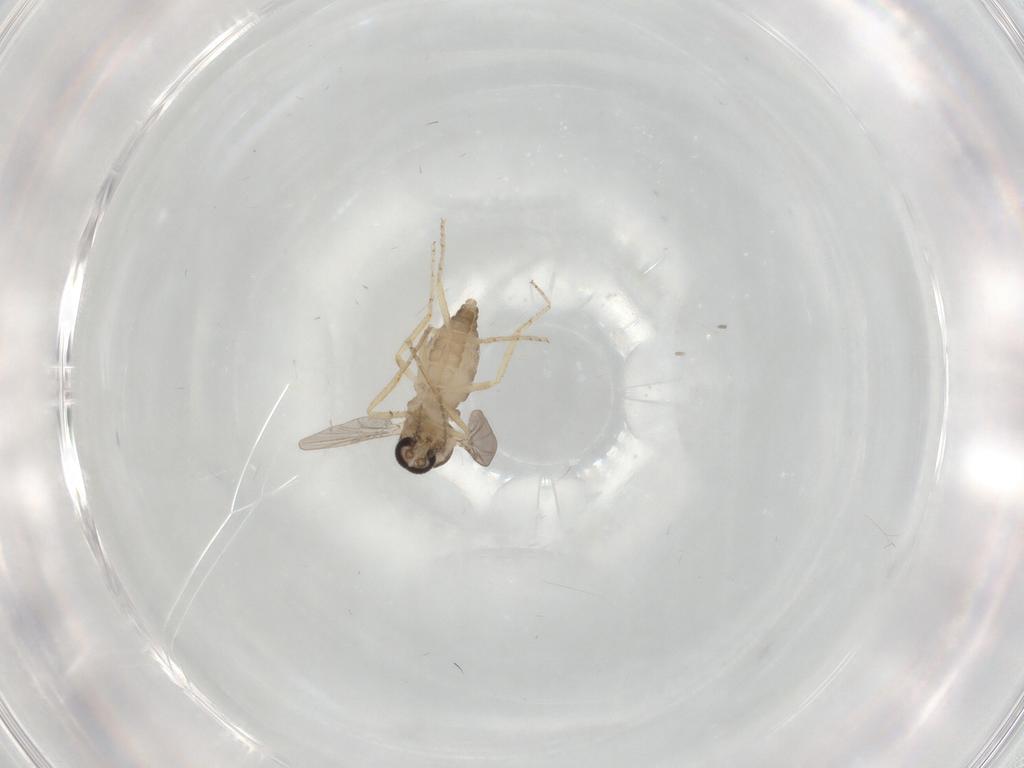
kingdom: Animalia
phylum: Arthropoda
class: Insecta
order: Diptera
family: Ceratopogonidae
